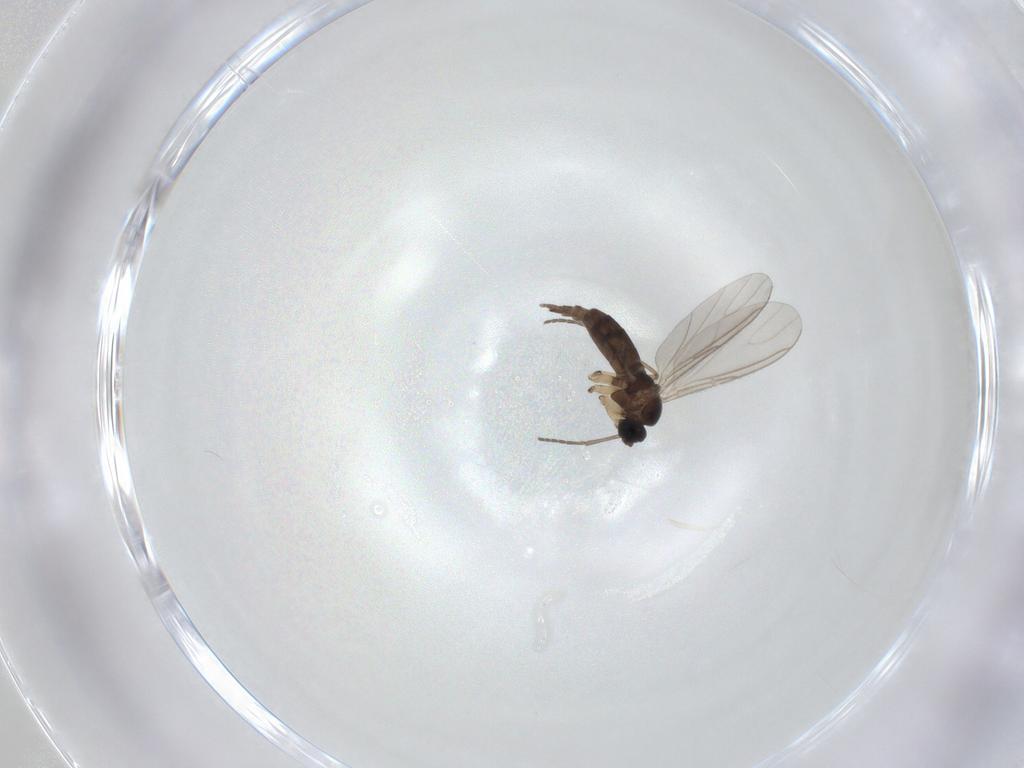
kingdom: Animalia
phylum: Arthropoda
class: Insecta
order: Diptera
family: Sciaridae
